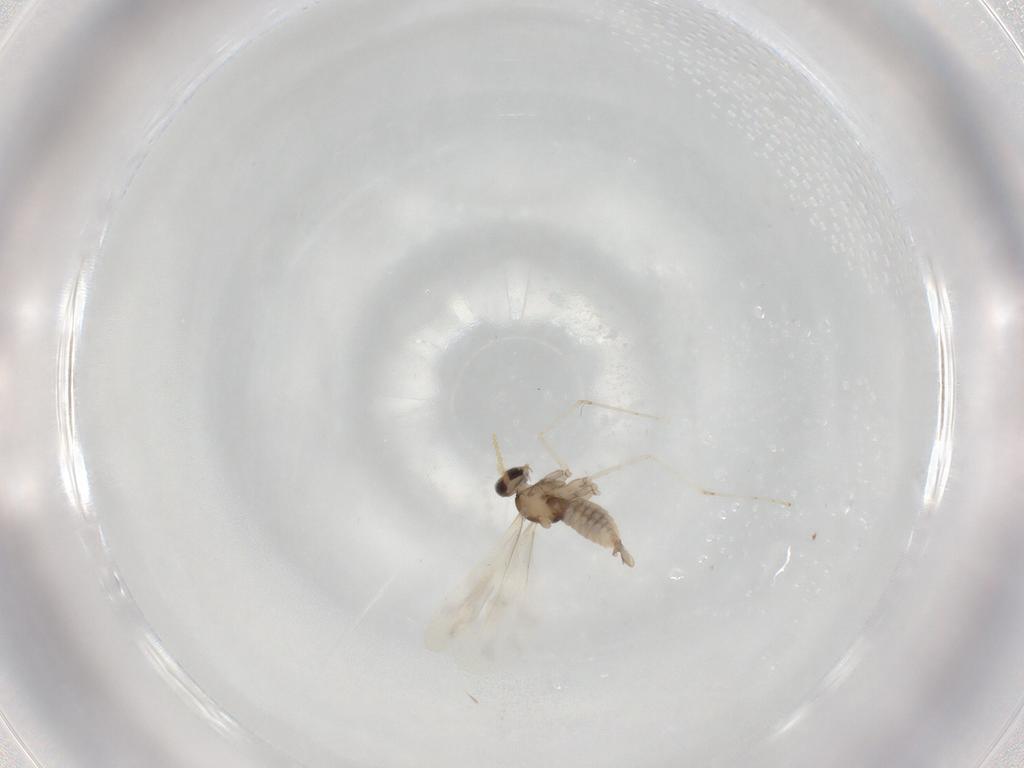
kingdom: Animalia
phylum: Arthropoda
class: Insecta
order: Diptera
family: Cecidomyiidae
